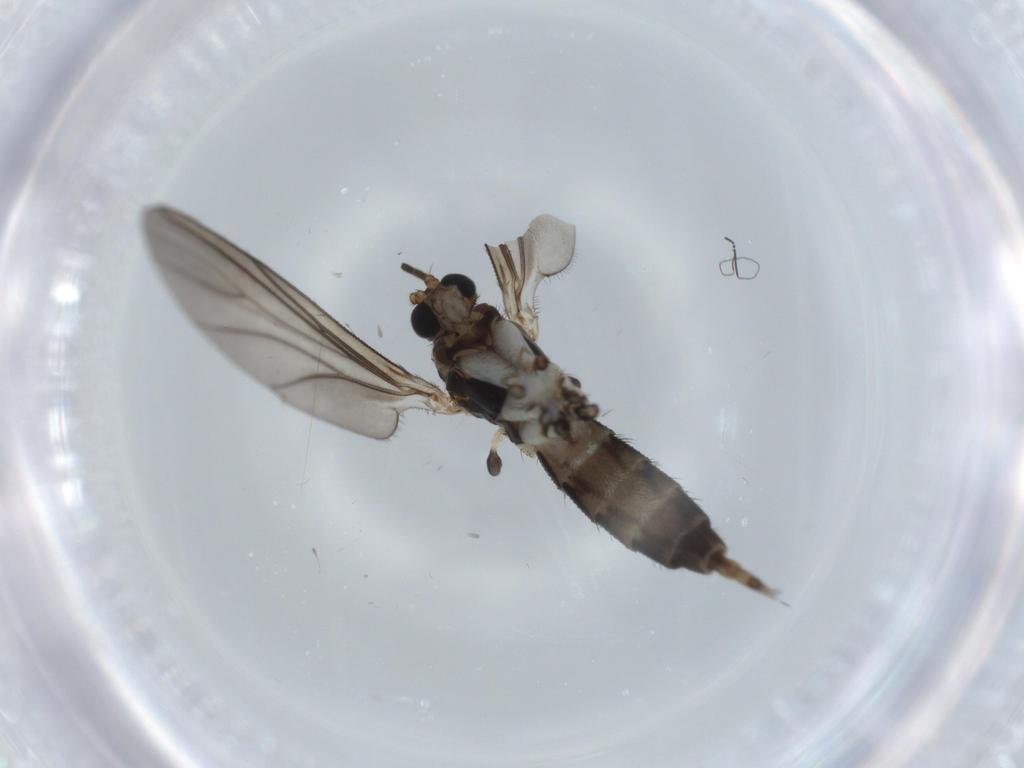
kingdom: Animalia
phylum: Arthropoda
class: Insecta
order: Diptera
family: Sciaridae
